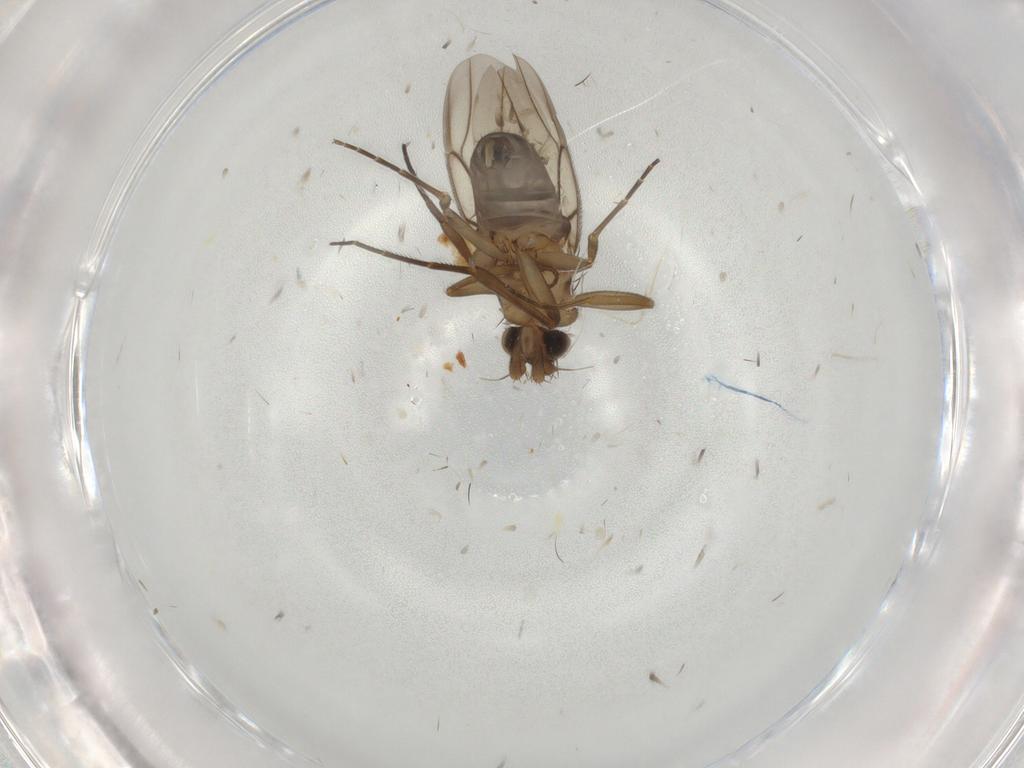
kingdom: Animalia
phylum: Arthropoda
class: Insecta
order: Diptera
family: Phoridae
